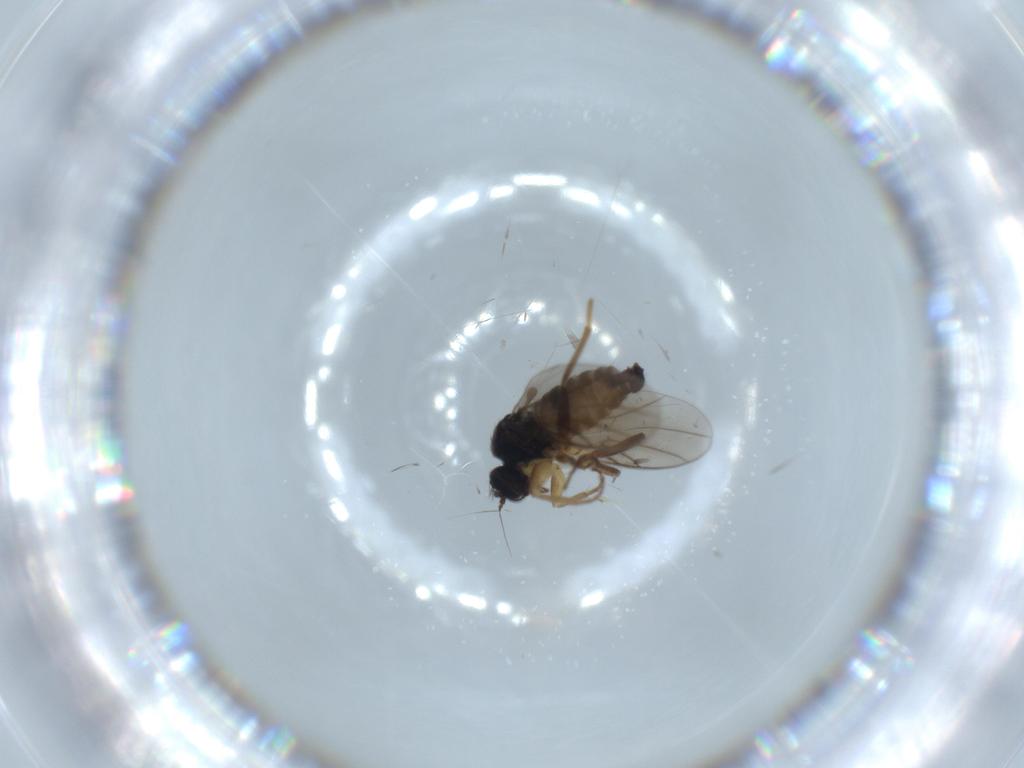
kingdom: Animalia
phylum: Arthropoda
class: Insecta
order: Diptera
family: Hybotidae
